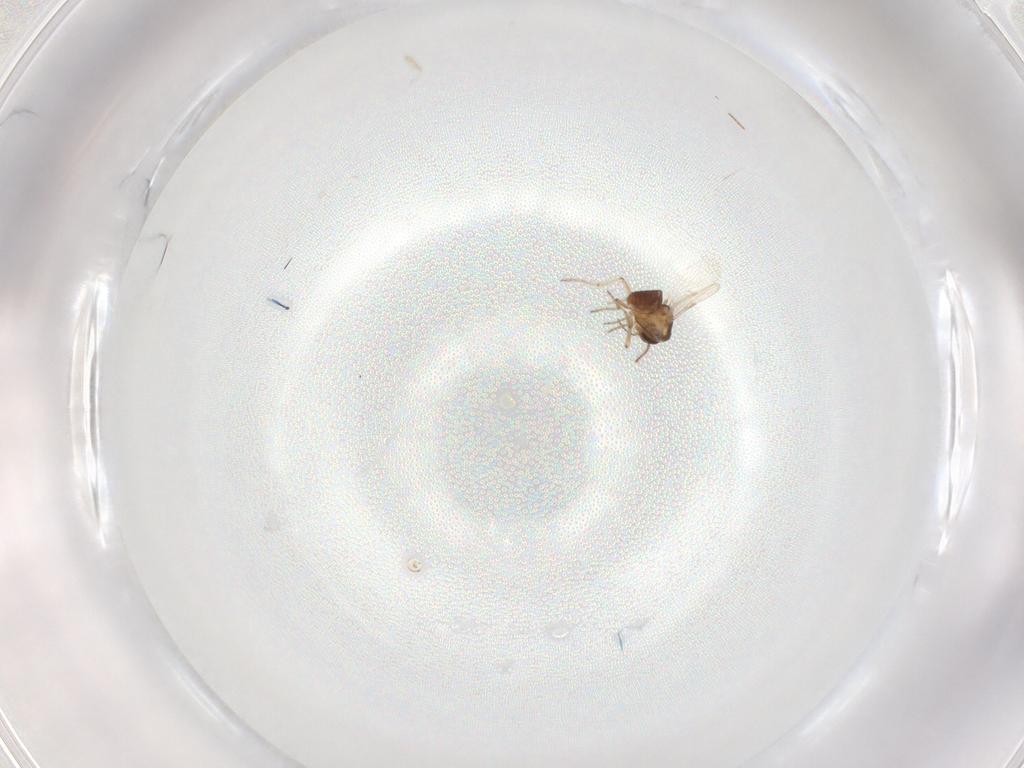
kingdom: Animalia
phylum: Arthropoda
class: Insecta
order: Diptera
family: Ceratopogonidae
